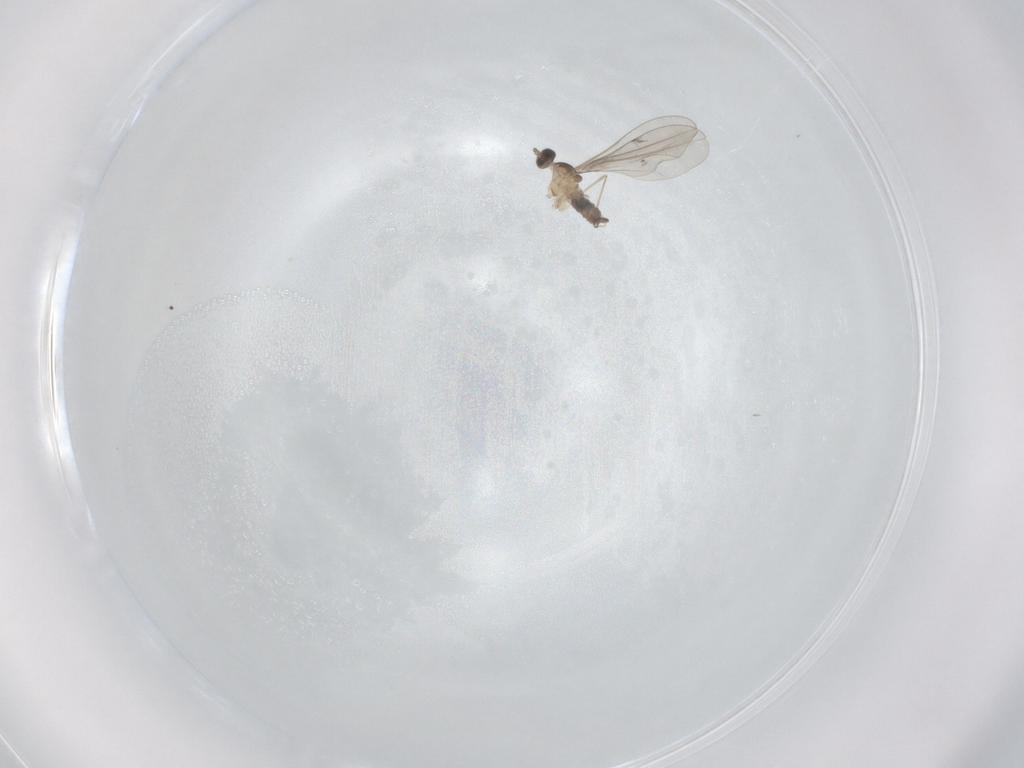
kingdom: Animalia
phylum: Arthropoda
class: Insecta
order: Diptera
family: Sciaridae
